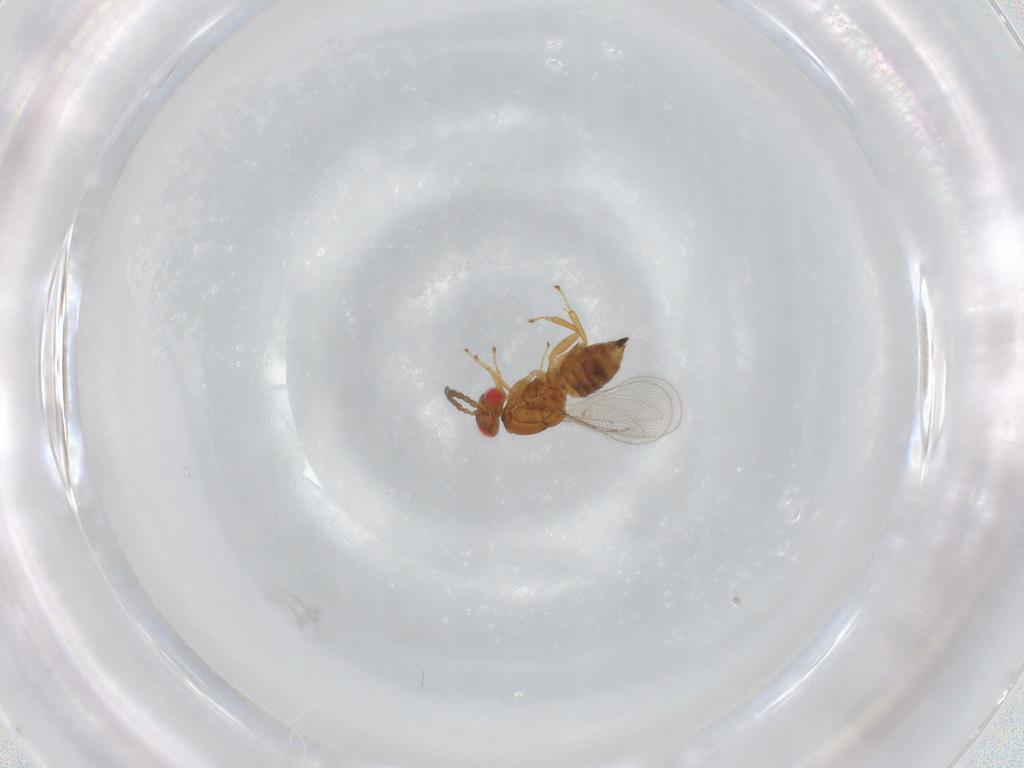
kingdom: Animalia
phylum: Arthropoda
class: Insecta
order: Hymenoptera
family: Eulophidae
